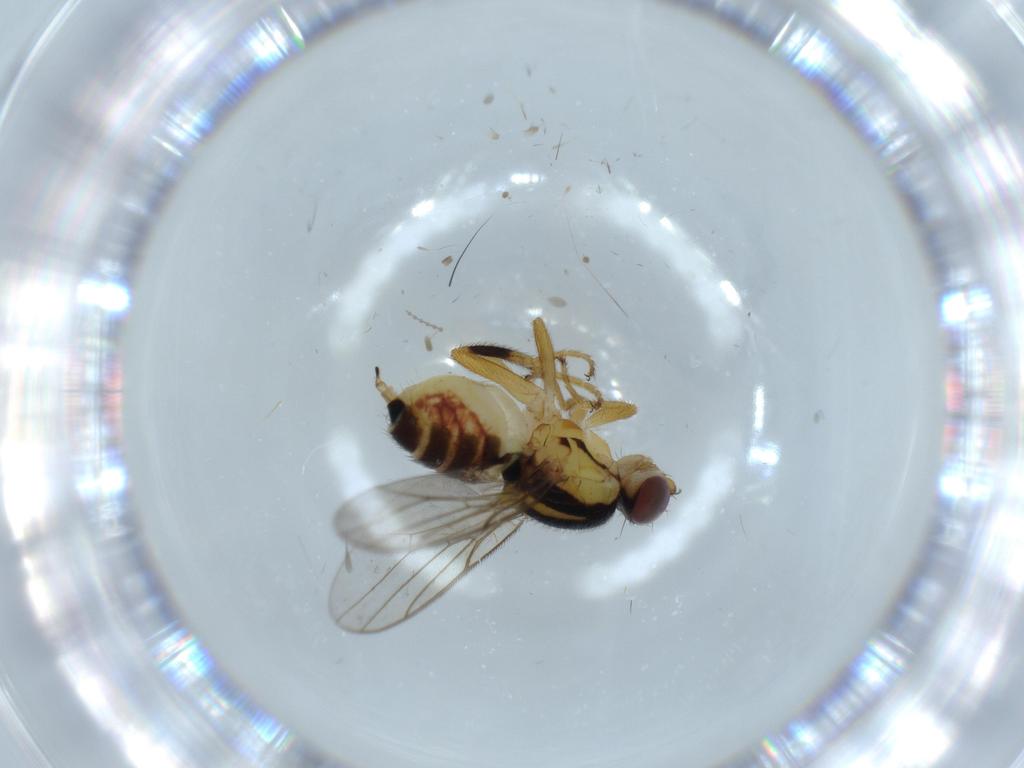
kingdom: Animalia
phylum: Arthropoda
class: Insecta
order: Diptera
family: Chloropidae
